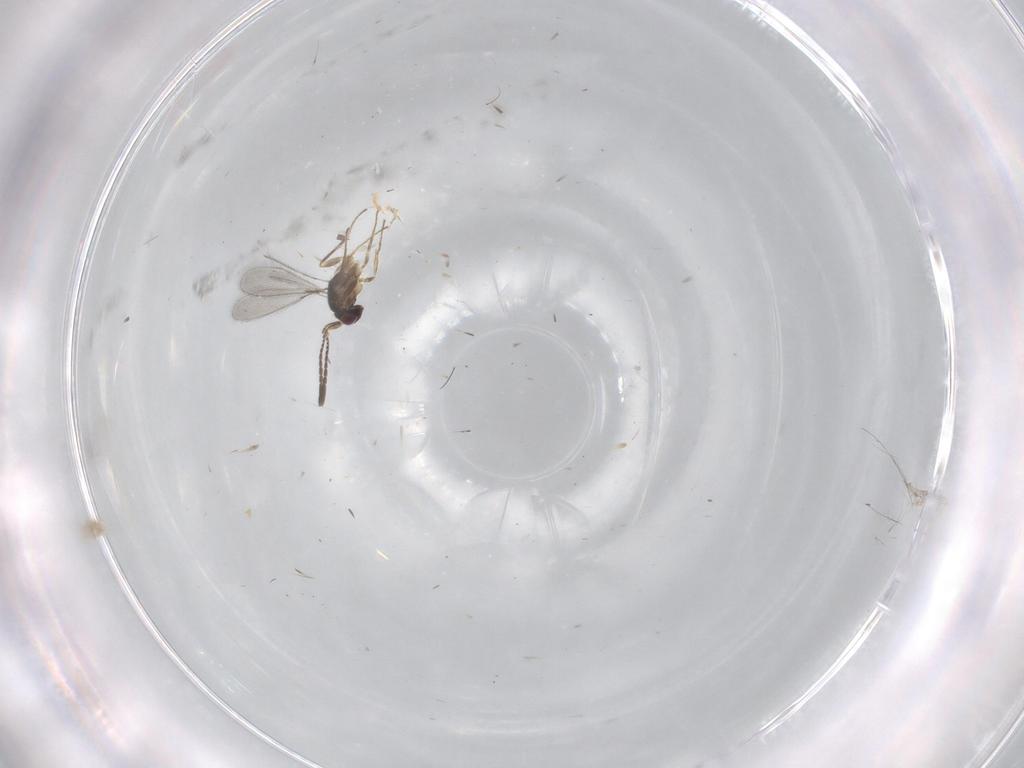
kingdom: Animalia
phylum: Arthropoda
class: Insecta
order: Hymenoptera
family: Mymaridae
